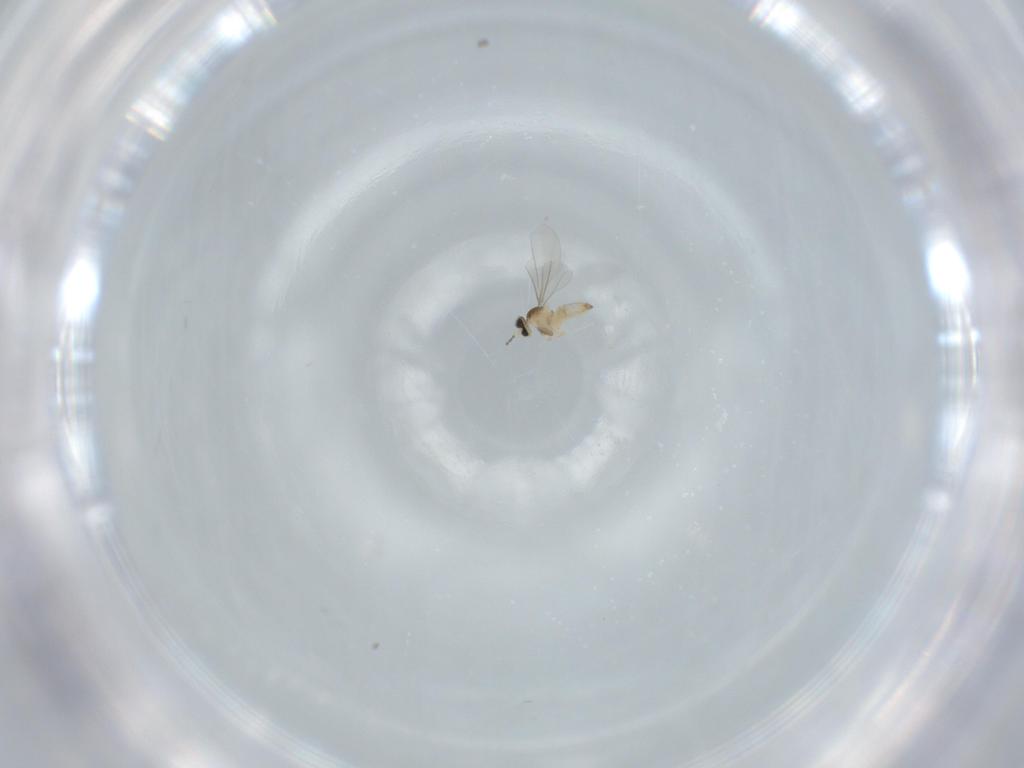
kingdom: Animalia
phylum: Arthropoda
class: Insecta
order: Diptera
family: Cecidomyiidae
